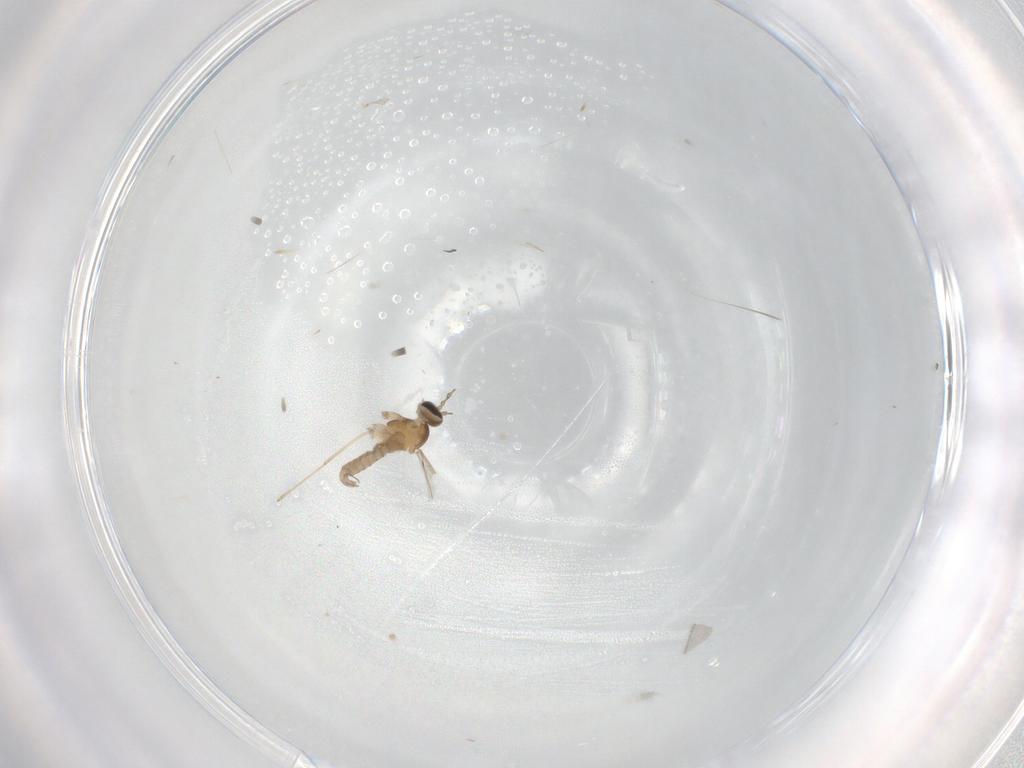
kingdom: Animalia
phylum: Arthropoda
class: Insecta
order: Diptera
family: Cecidomyiidae
